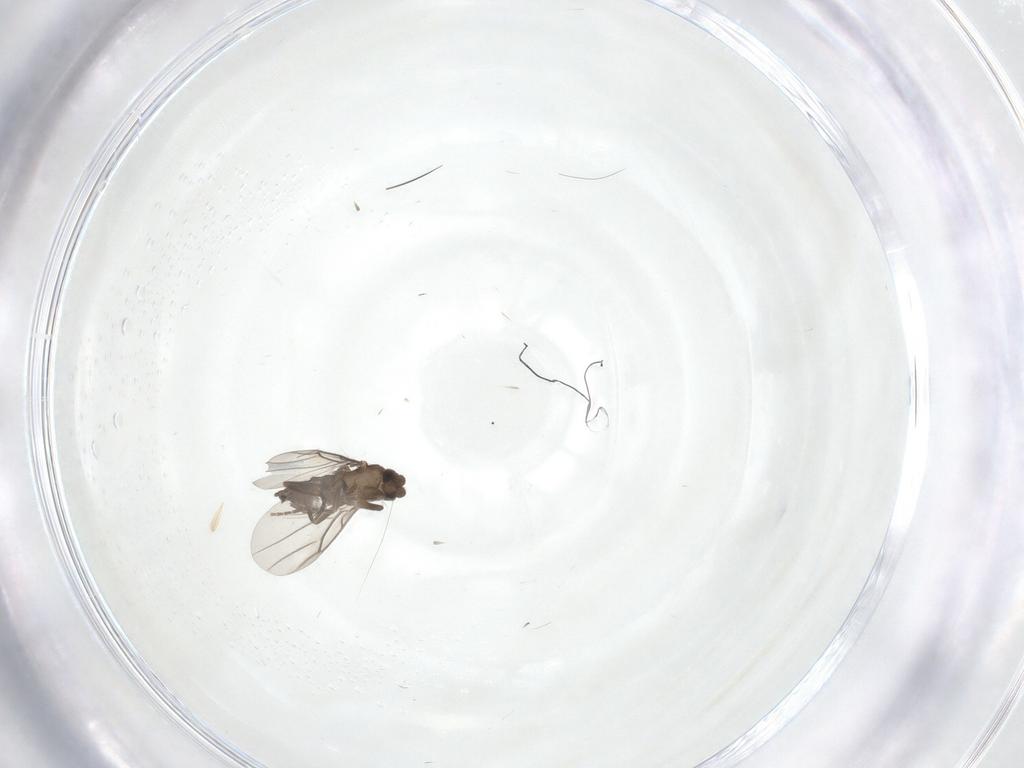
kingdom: Animalia
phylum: Arthropoda
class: Insecta
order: Diptera
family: Phoridae
